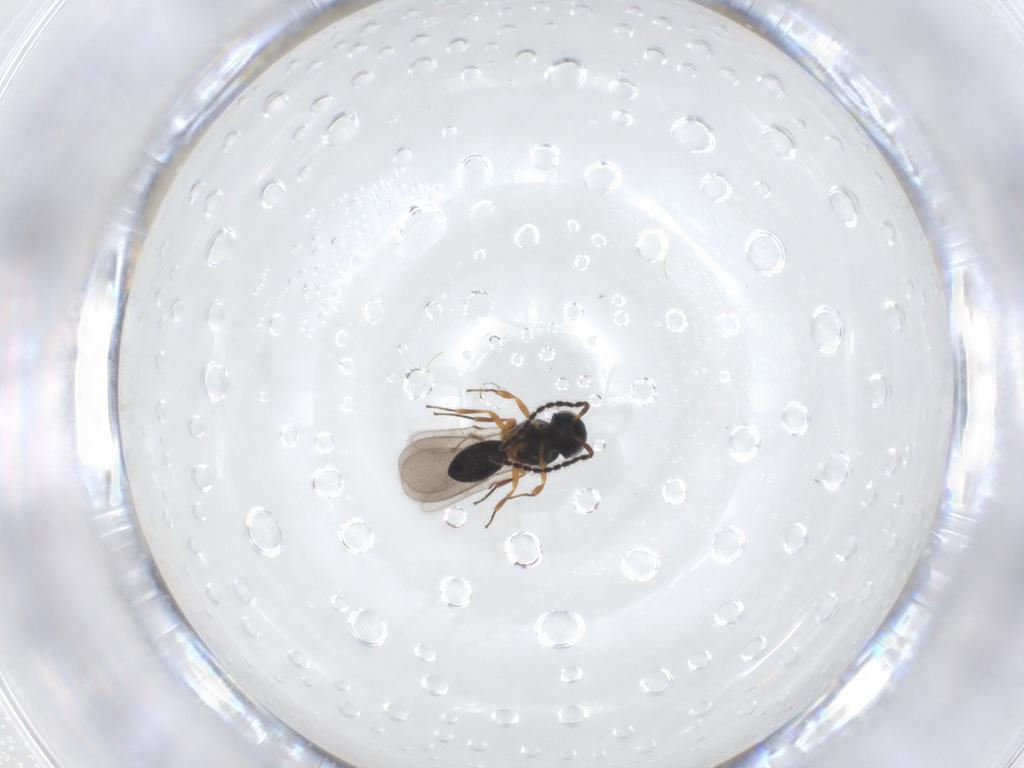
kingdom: Animalia
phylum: Arthropoda
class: Insecta
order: Hymenoptera
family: Scelionidae
